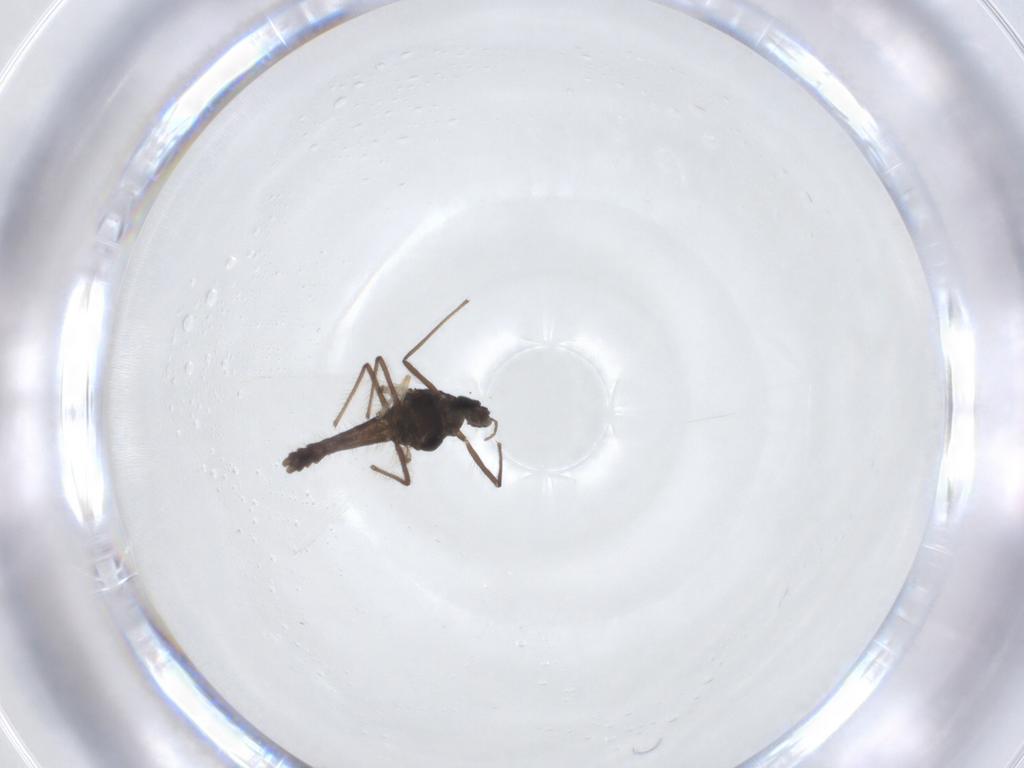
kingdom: Animalia
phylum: Arthropoda
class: Insecta
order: Diptera
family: Chironomidae
